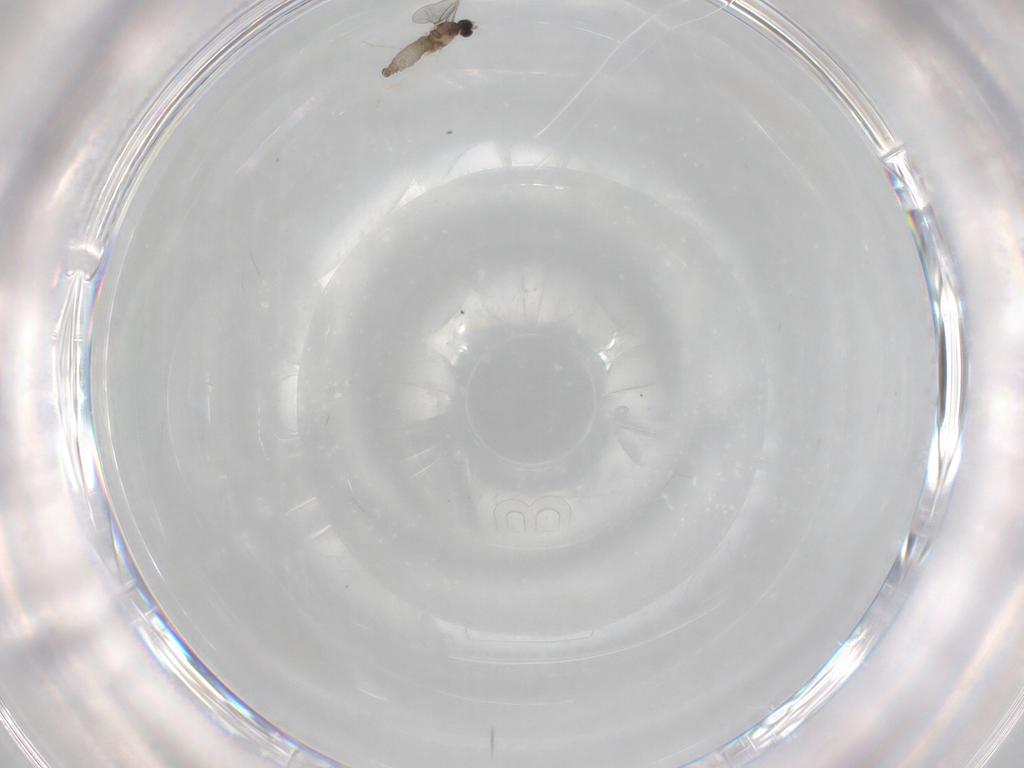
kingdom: Animalia
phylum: Arthropoda
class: Insecta
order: Diptera
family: Cecidomyiidae
